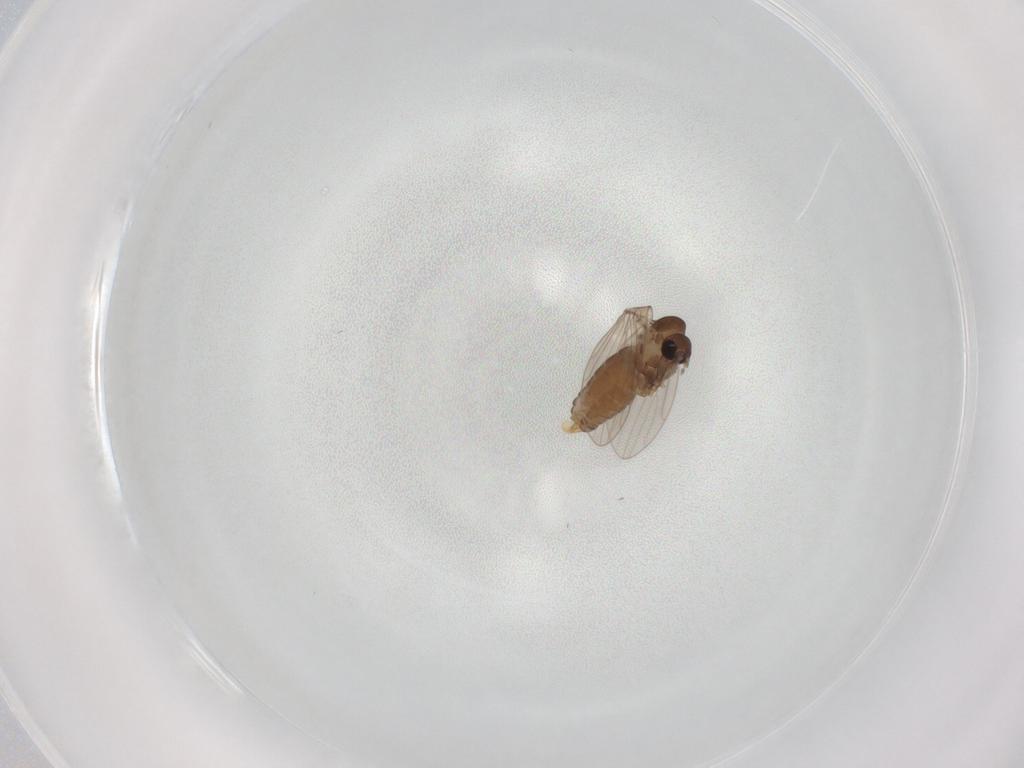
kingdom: Animalia
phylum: Arthropoda
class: Insecta
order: Diptera
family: Sciaridae
